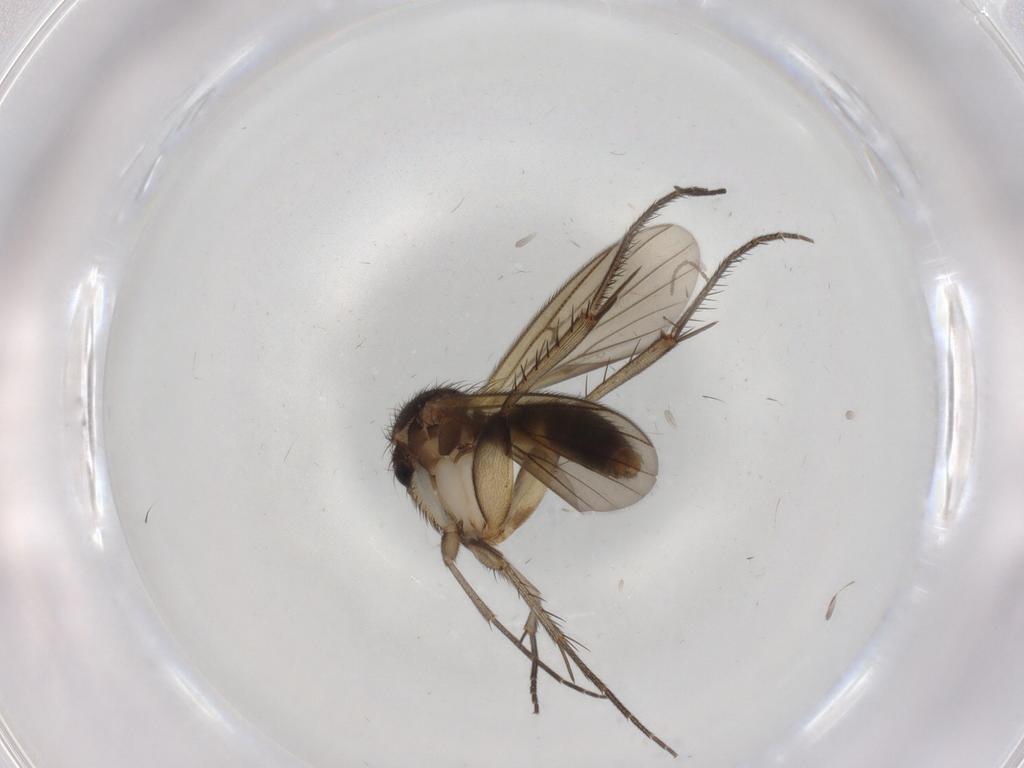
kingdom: Animalia
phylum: Arthropoda
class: Insecta
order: Diptera
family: Mycetophilidae
